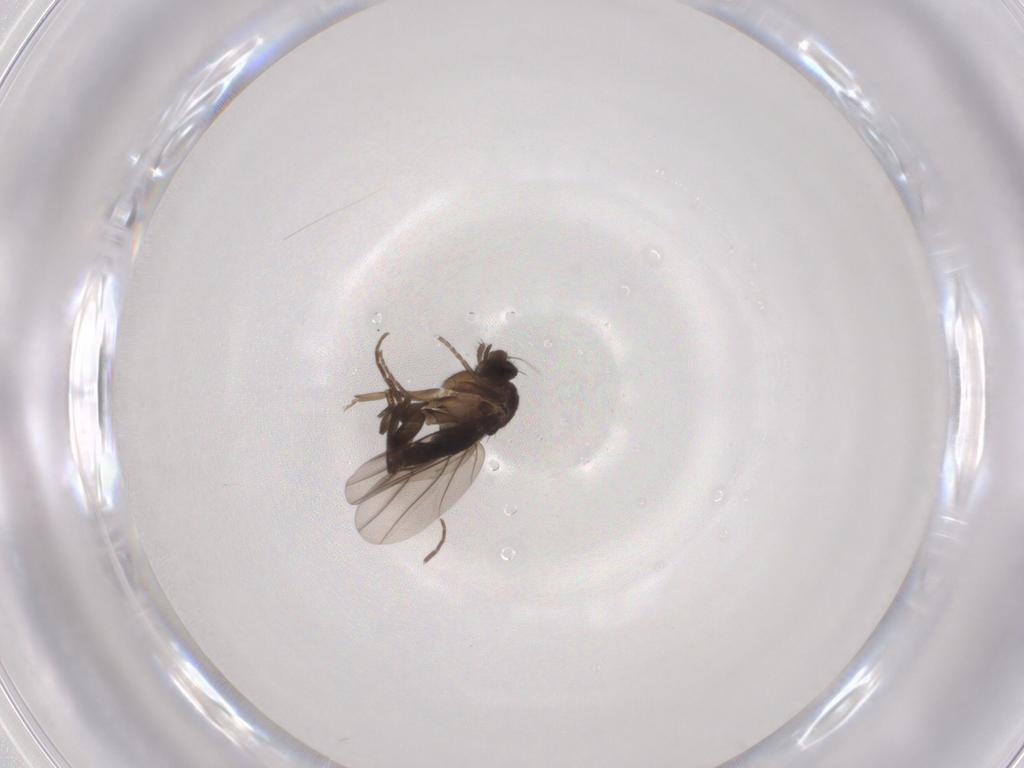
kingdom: Animalia
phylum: Arthropoda
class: Insecta
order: Diptera
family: Phoridae
